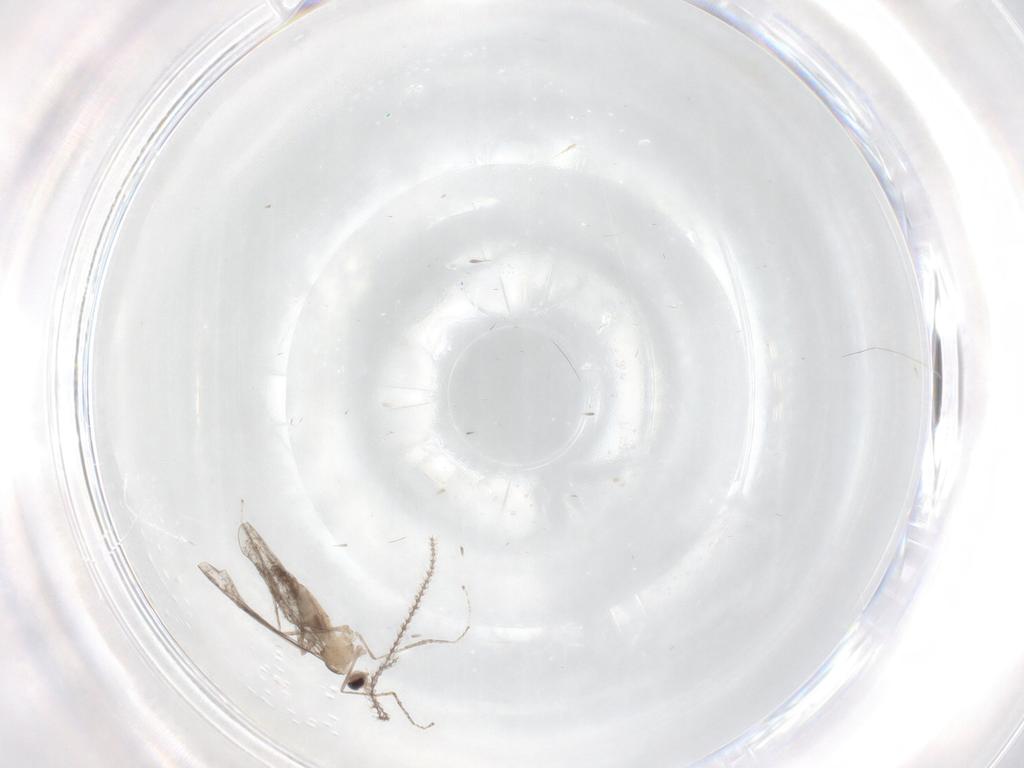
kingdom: Animalia
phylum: Arthropoda
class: Insecta
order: Diptera
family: Cecidomyiidae
